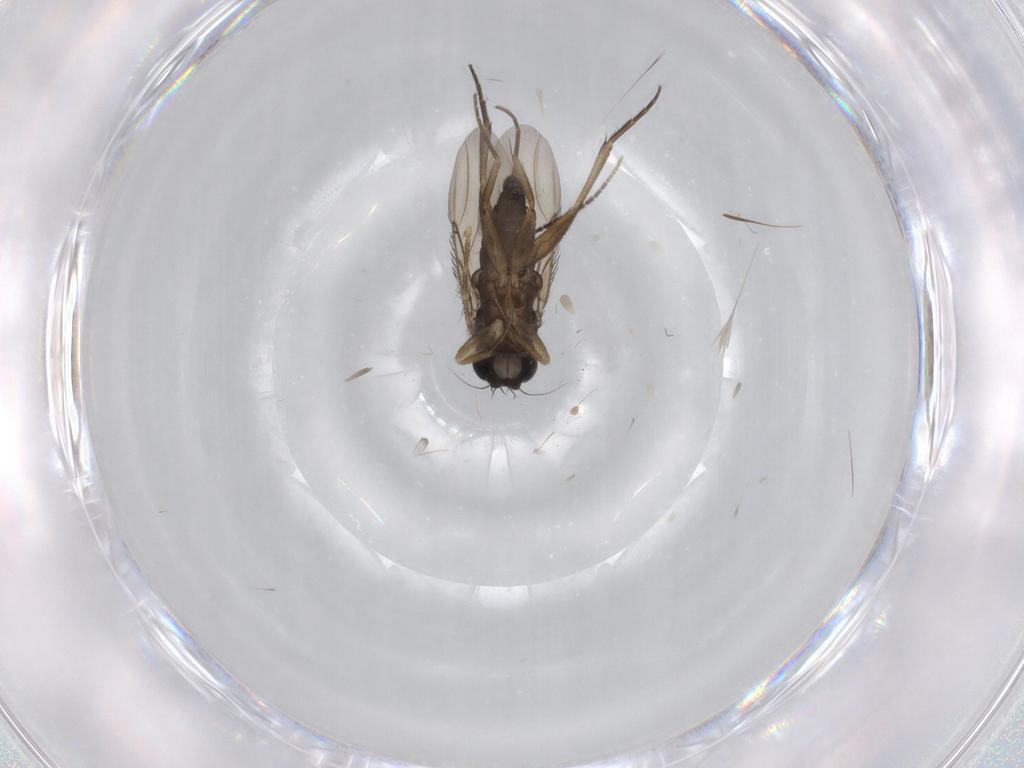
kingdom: Animalia
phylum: Arthropoda
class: Insecta
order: Diptera
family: Phoridae
